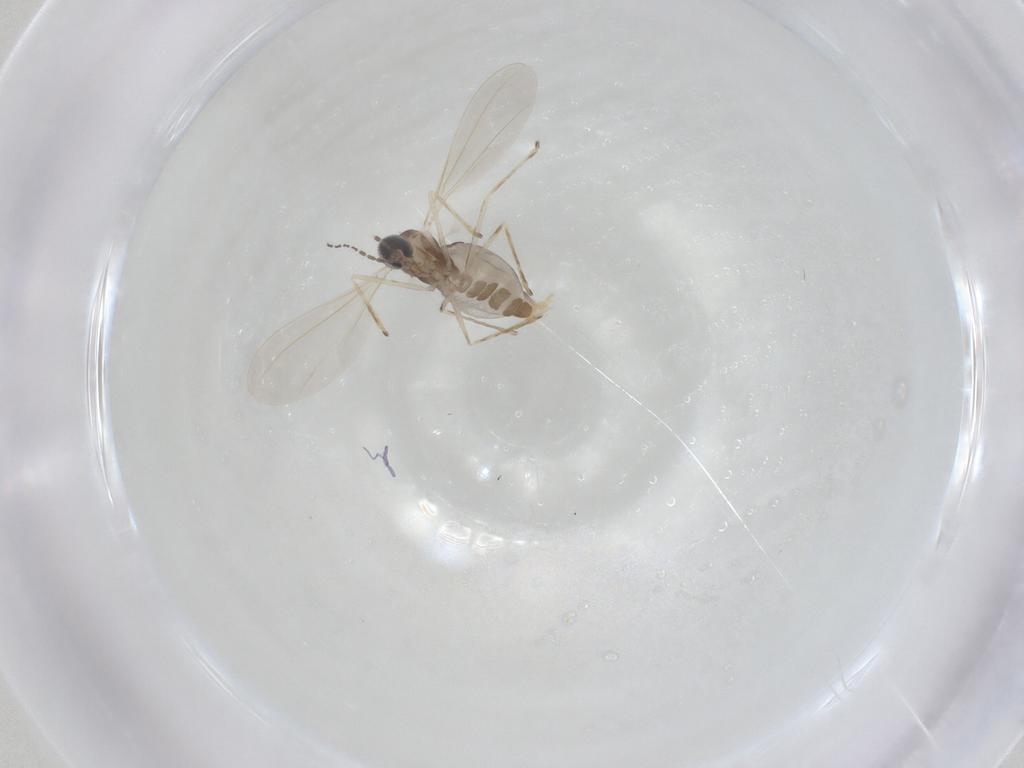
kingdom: Animalia
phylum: Arthropoda
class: Insecta
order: Diptera
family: Cecidomyiidae
